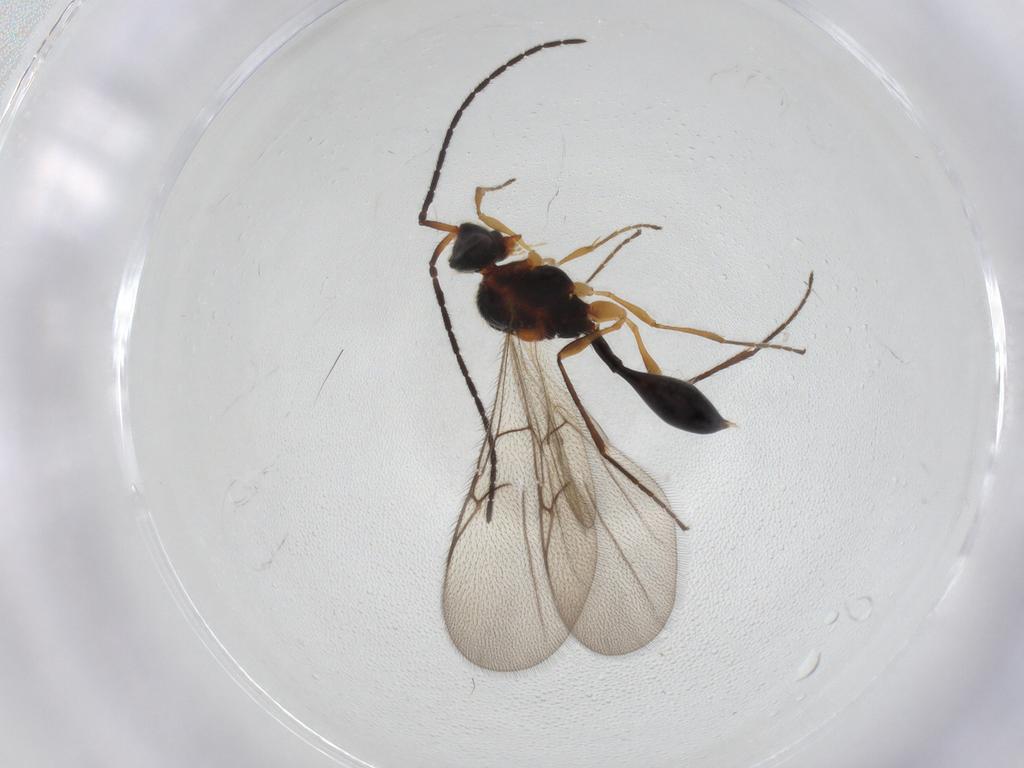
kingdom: Animalia
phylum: Arthropoda
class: Insecta
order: Hymenoptera
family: Diapriidae
